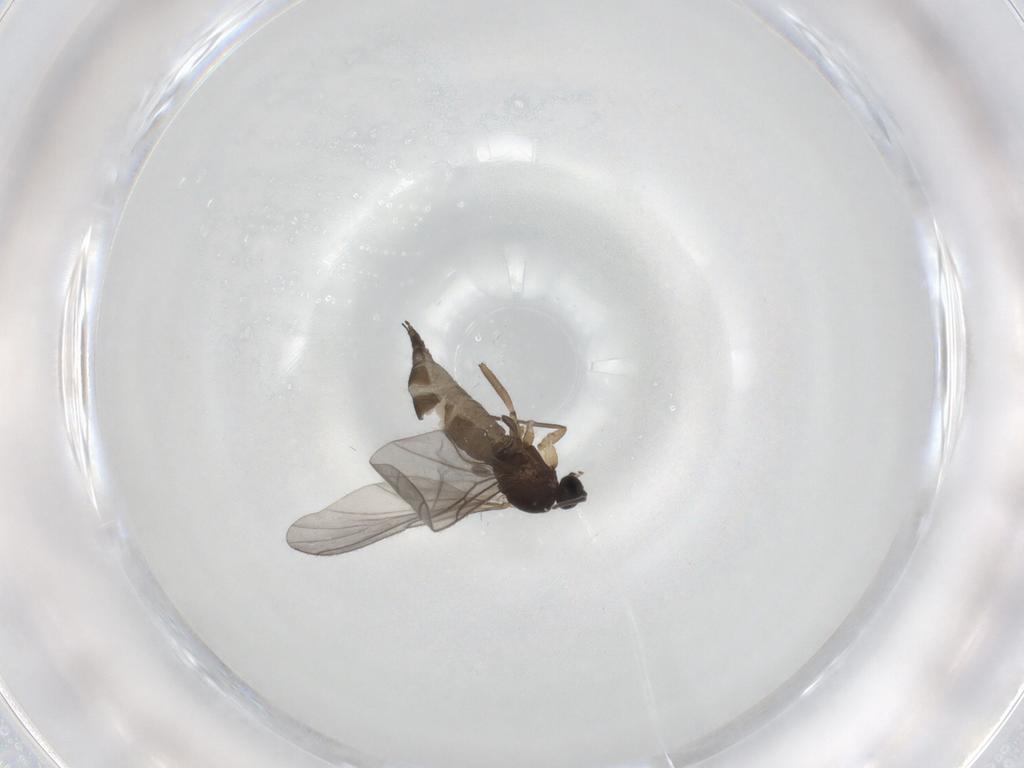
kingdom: Animalia
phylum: Arthropoda
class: Insecta
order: Diptera
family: Sciaridae
